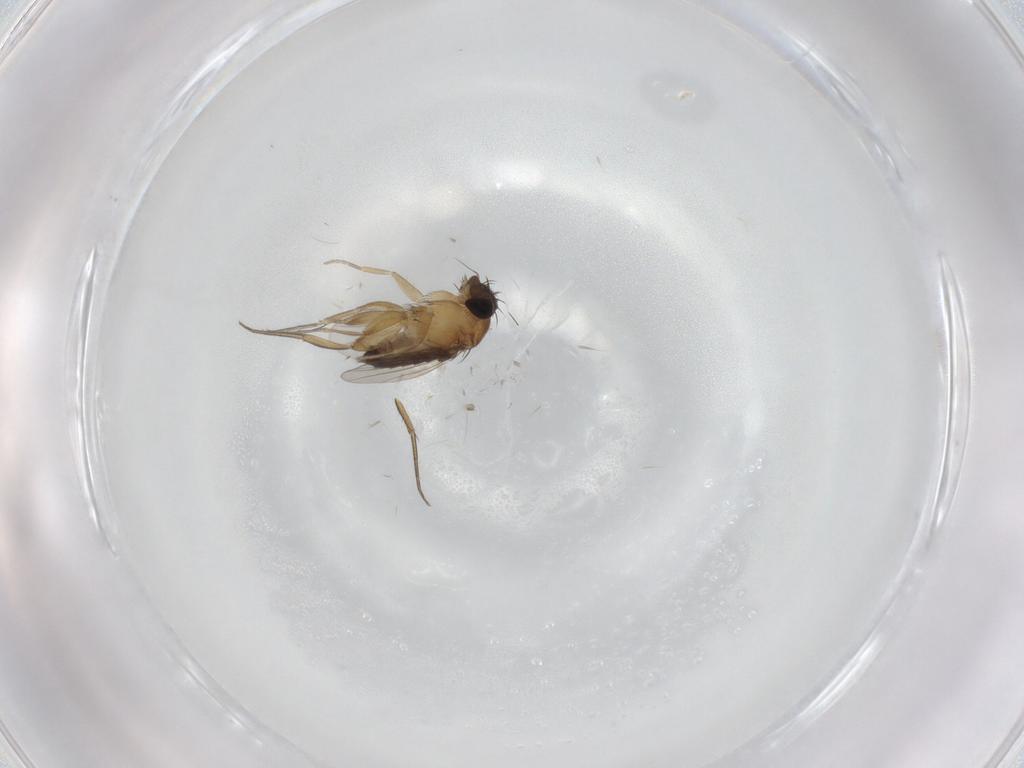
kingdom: Animalia
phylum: Arthropoda
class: Insecta
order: Diptera
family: Phoridae
